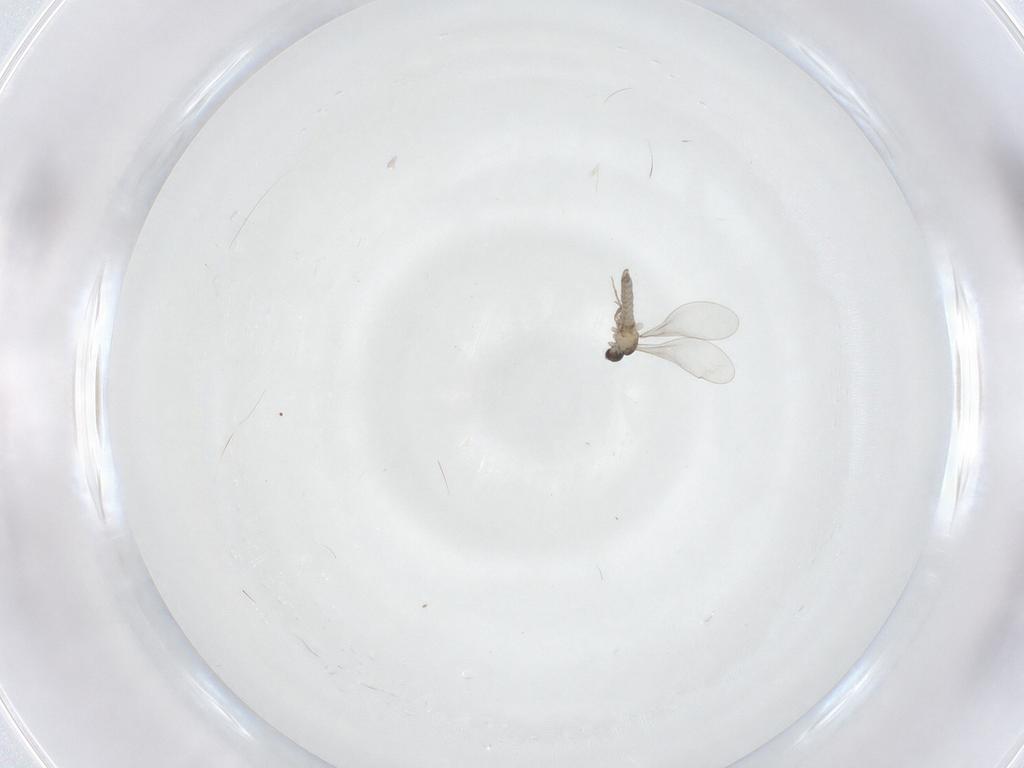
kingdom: Animalia
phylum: Arthropoda
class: Insecta
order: Diptera
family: Cecidomyiidae
